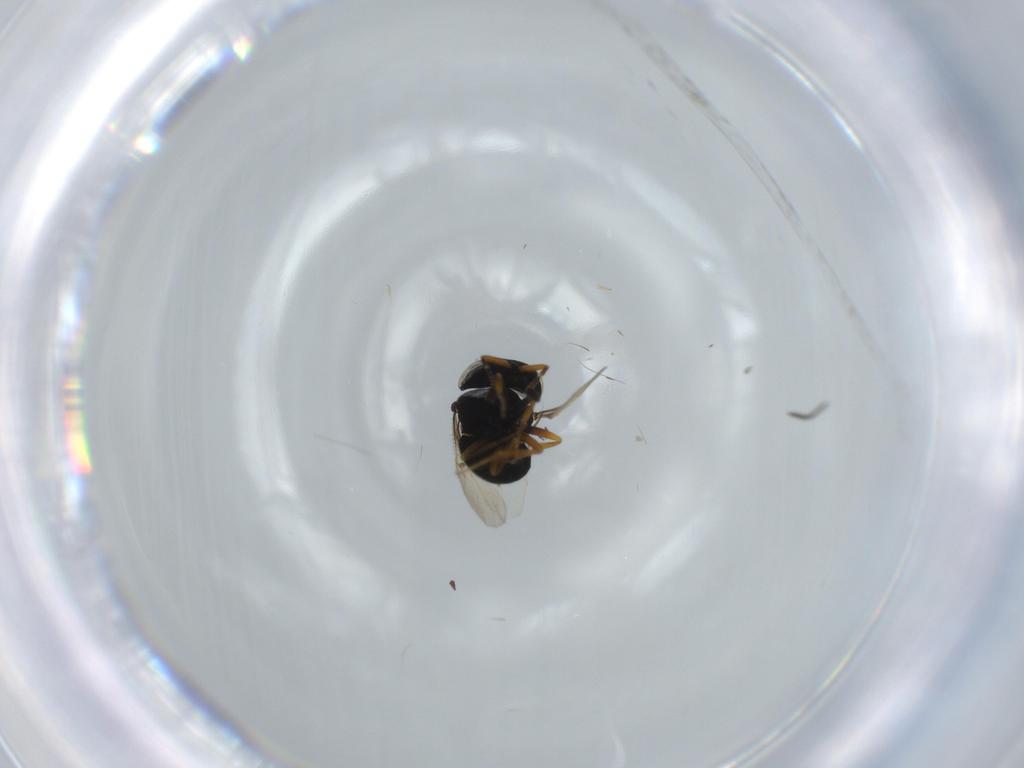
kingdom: Animalia
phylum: Arthropoda
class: Insecta
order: Hymenoptera
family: Scelionidae
